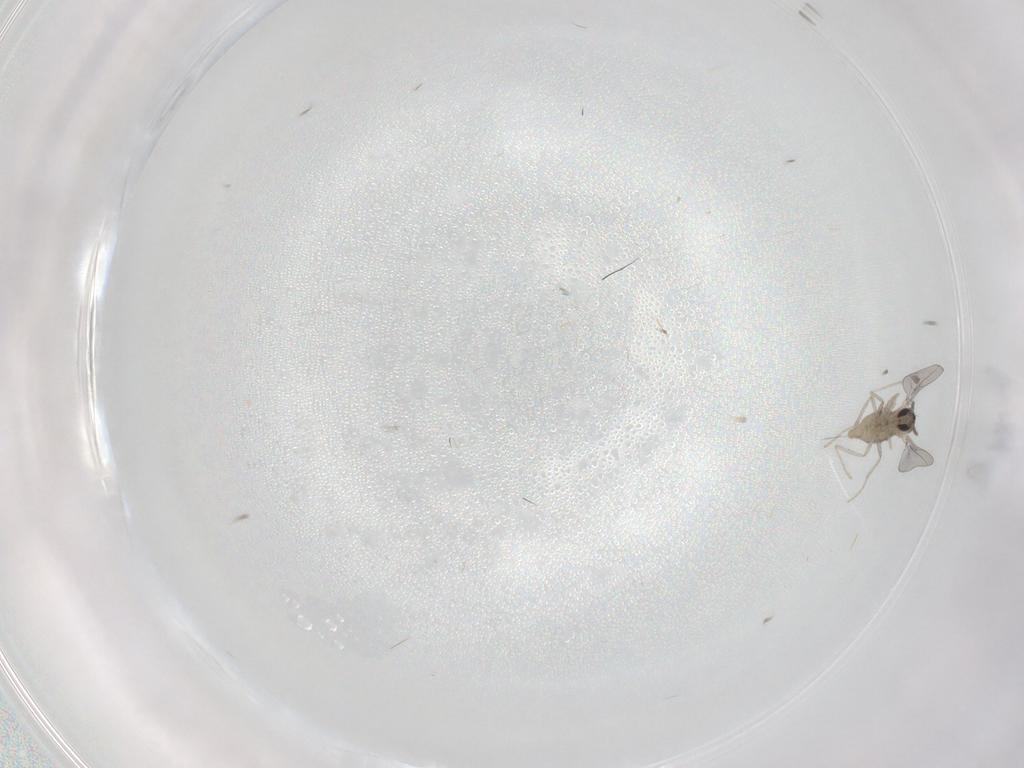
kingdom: Animalia
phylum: Arthropoda
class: Insecta
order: Diptera
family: Cecidomyiidae
